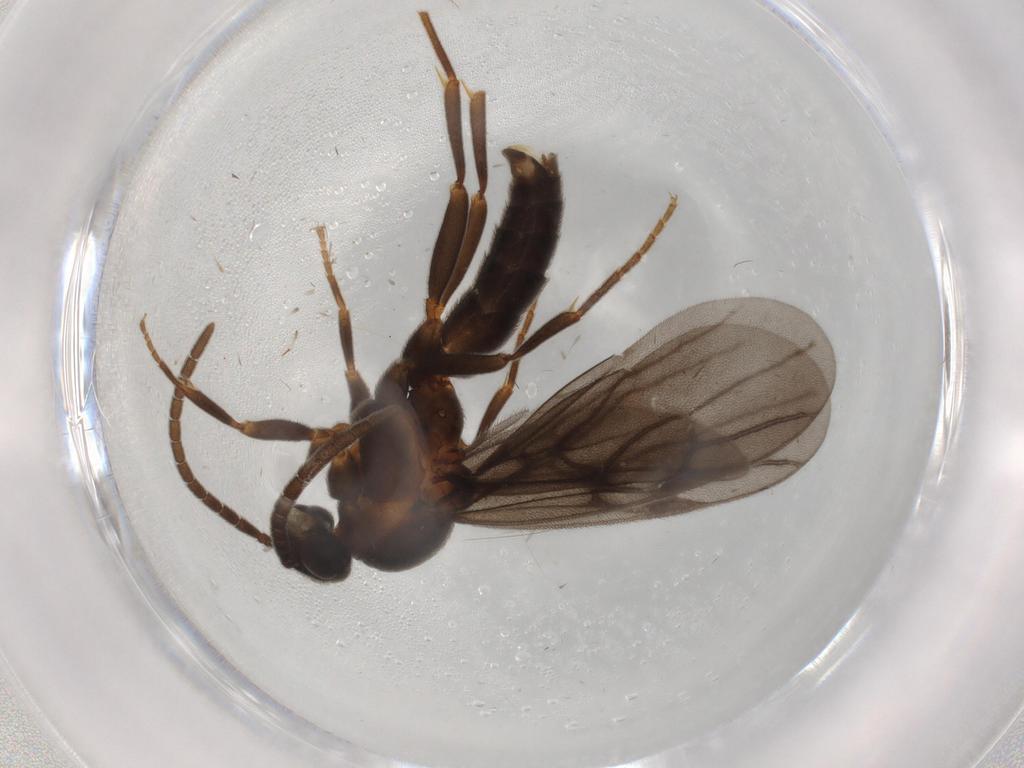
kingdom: Animalia
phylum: Arthropoda
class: Insecta
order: Hymenoptera
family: Formicidae
